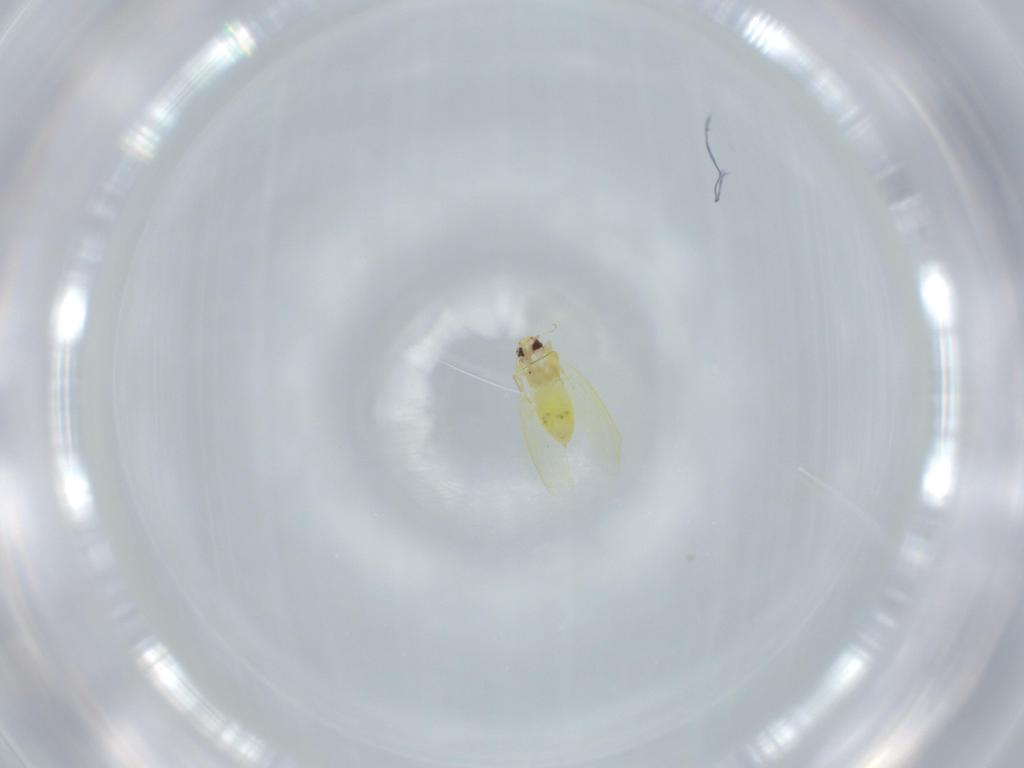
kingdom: Animalia
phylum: Arthropoda
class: Insecta
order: Hemiptera
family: Aleyrodidae
